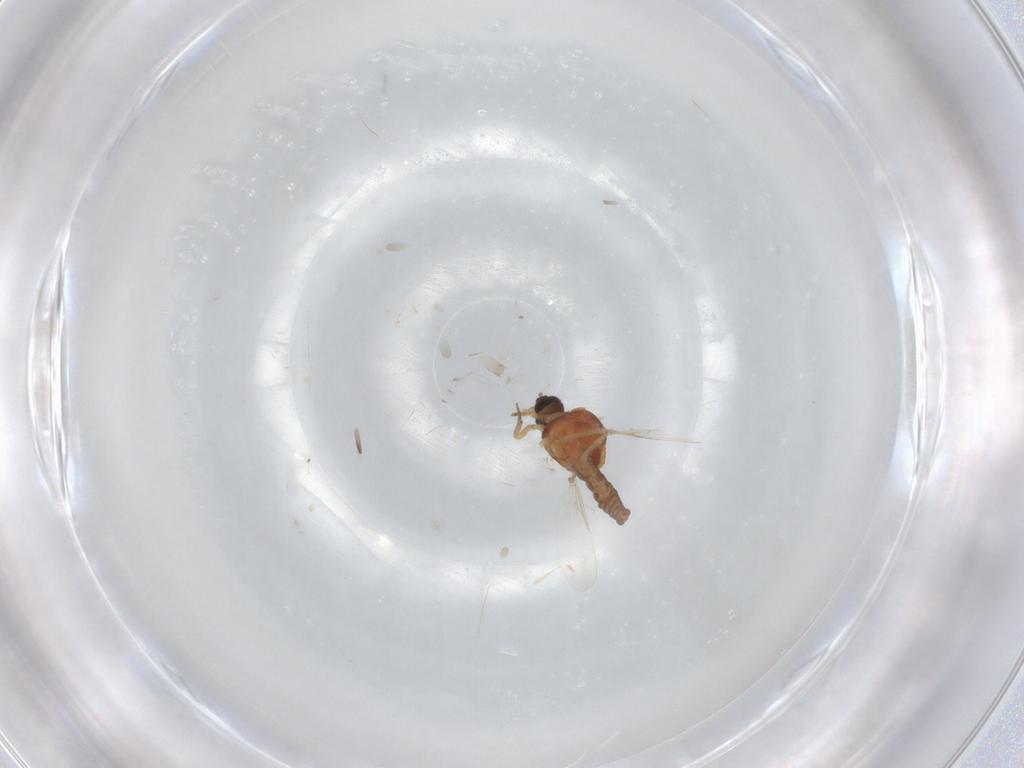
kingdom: Animalia
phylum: Arthropoda
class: Insecta
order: Diptera
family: Ceratopogonidae
